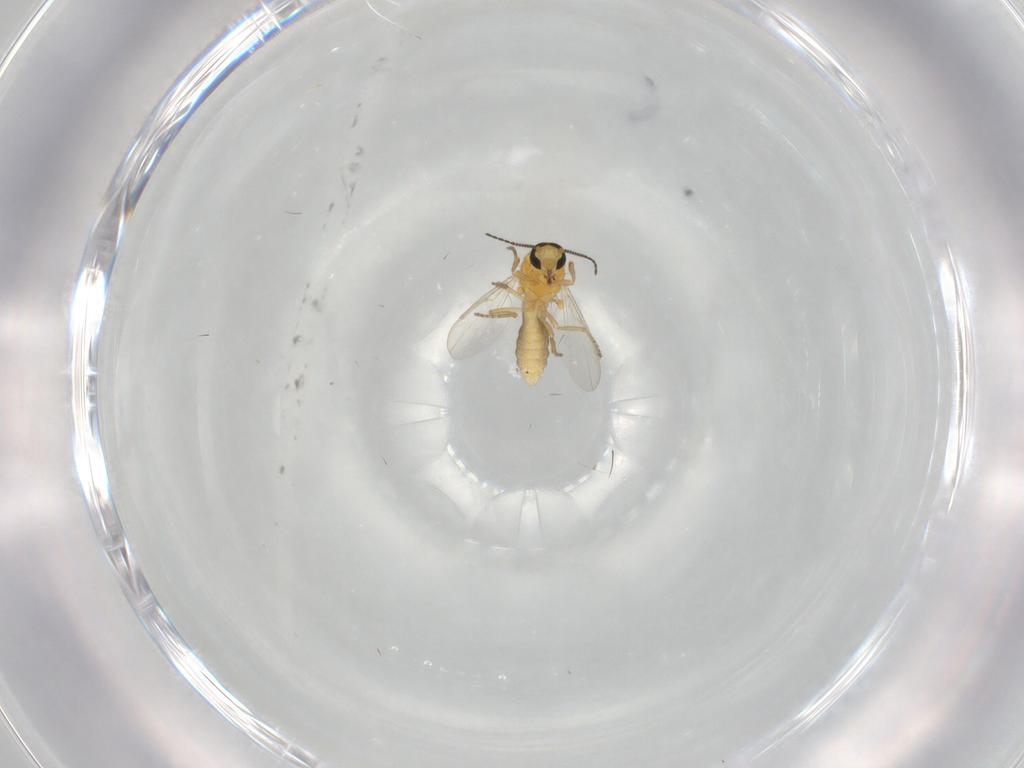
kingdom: Animalia
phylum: Arthropoda
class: Insecta
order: Diptera
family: Ceratopogonidae
